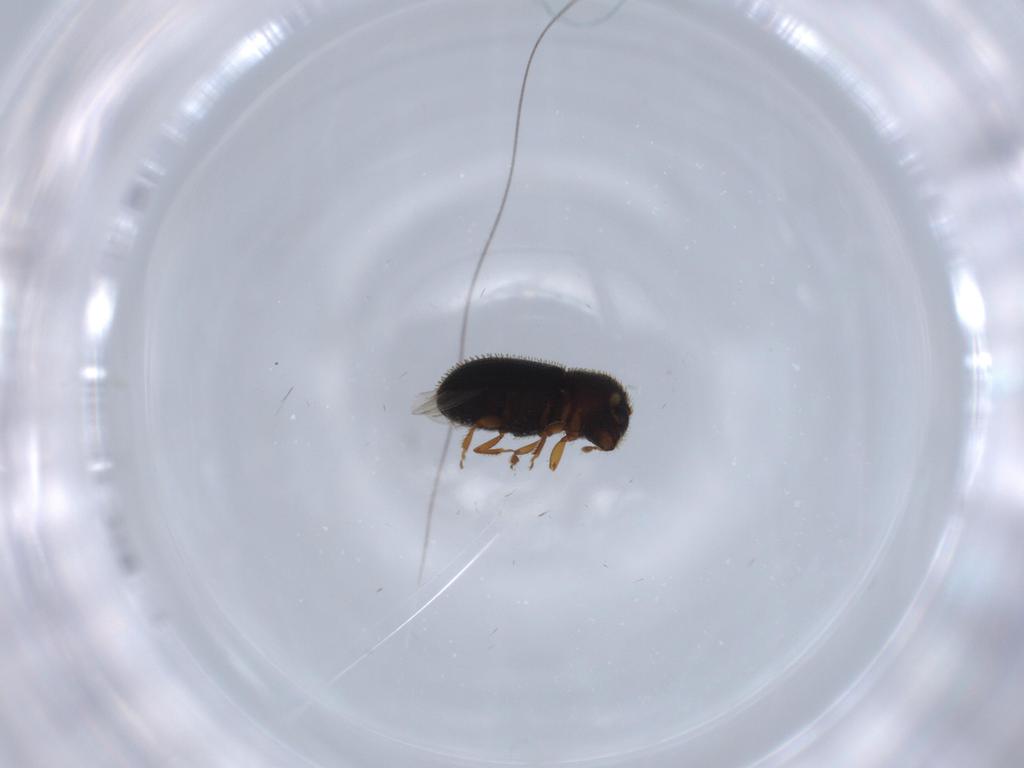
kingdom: Animalia
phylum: Arthropoda
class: Insecta
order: Coleoptera
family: Chrysomelidae
